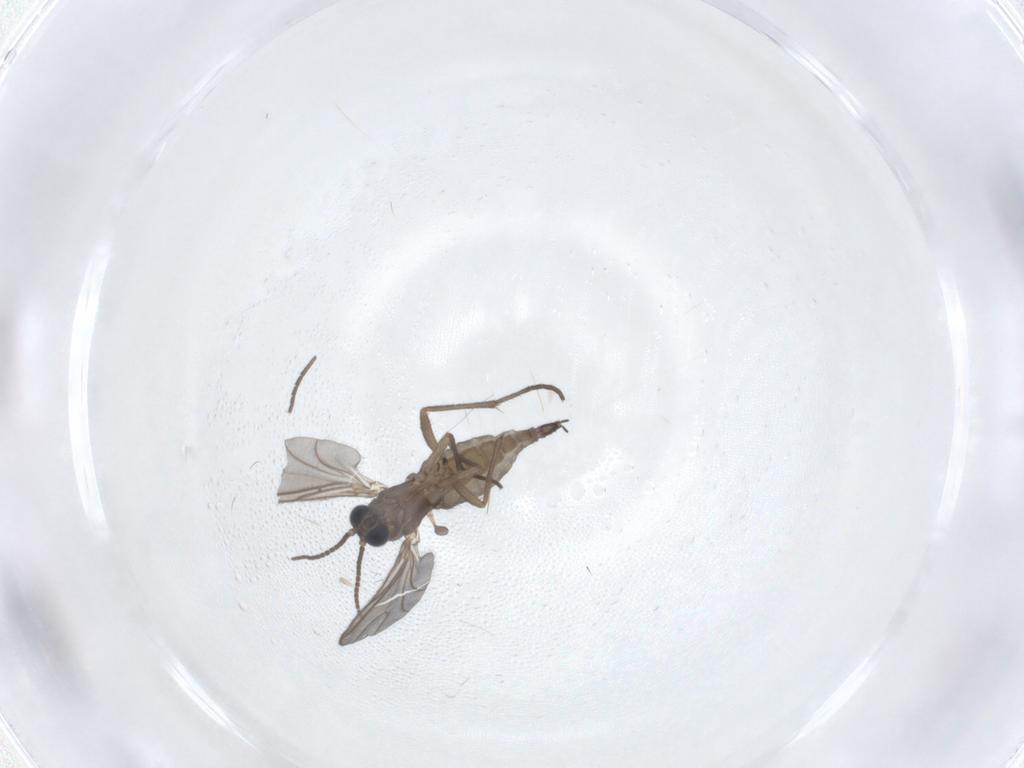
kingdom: Animalia
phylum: Arthropoda
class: Insecta
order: Diptera
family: Sciaridae
